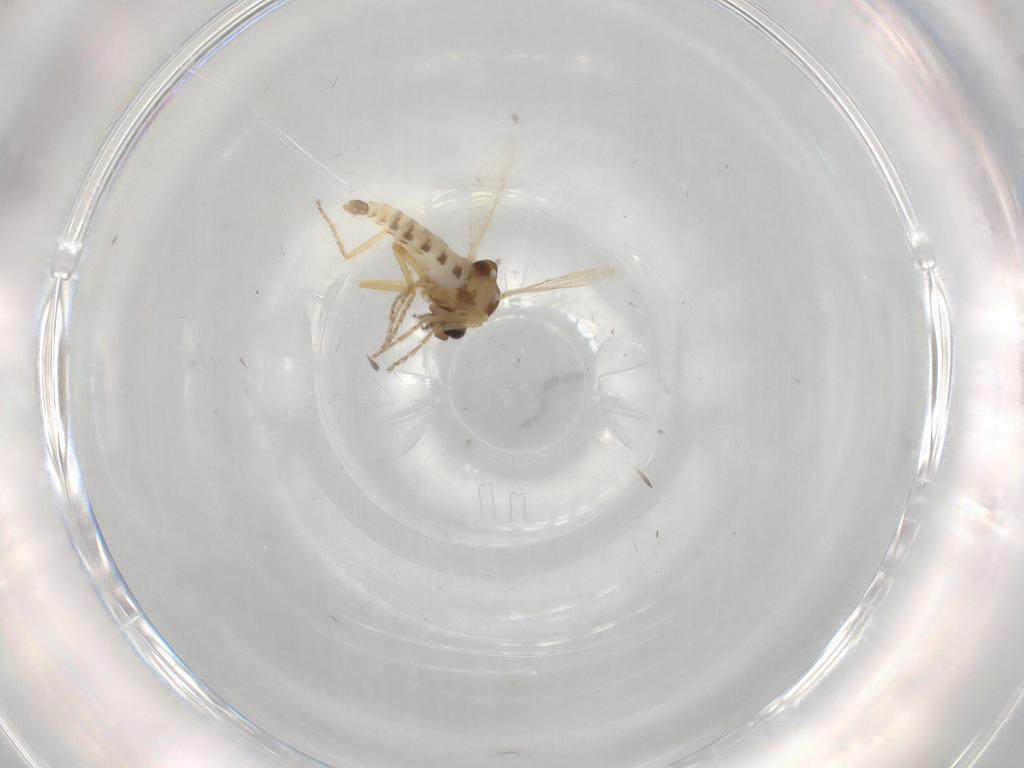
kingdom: Animalia
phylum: Arthropoda
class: Insecta
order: Diptera
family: Ceratopogonidae
